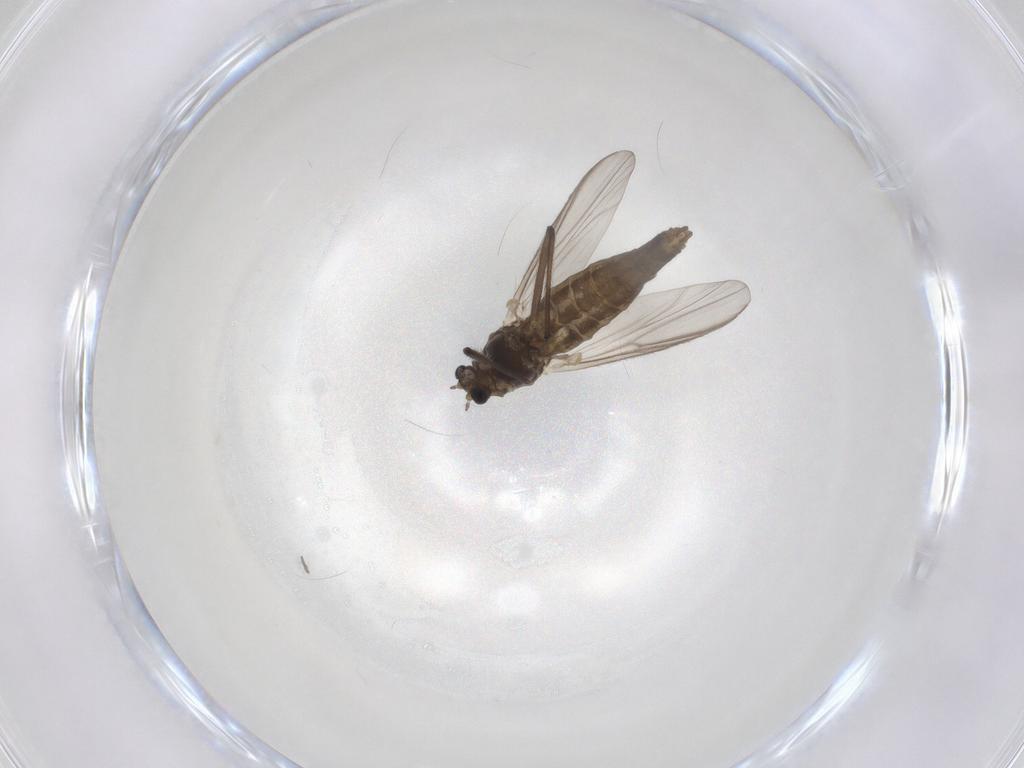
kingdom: Animalia
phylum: Arthropoda
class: Insecta
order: Diptera
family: Chironomidae
